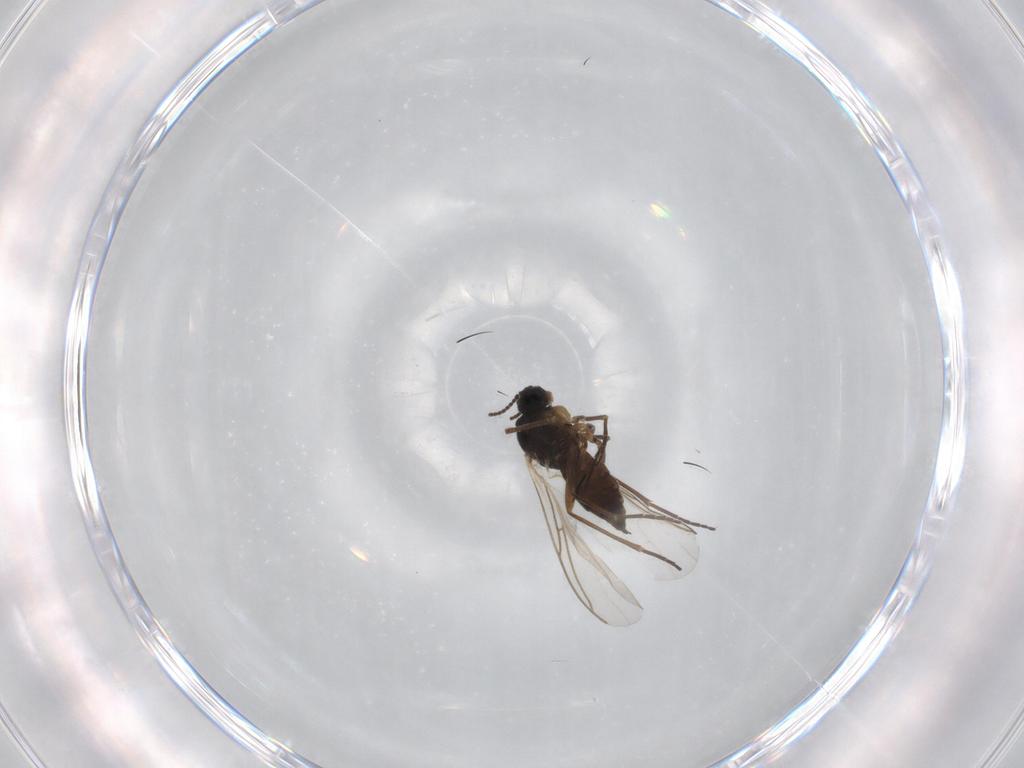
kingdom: Animalia
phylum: Arthropoda
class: Insecta
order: Diptera
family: Sciaridae
